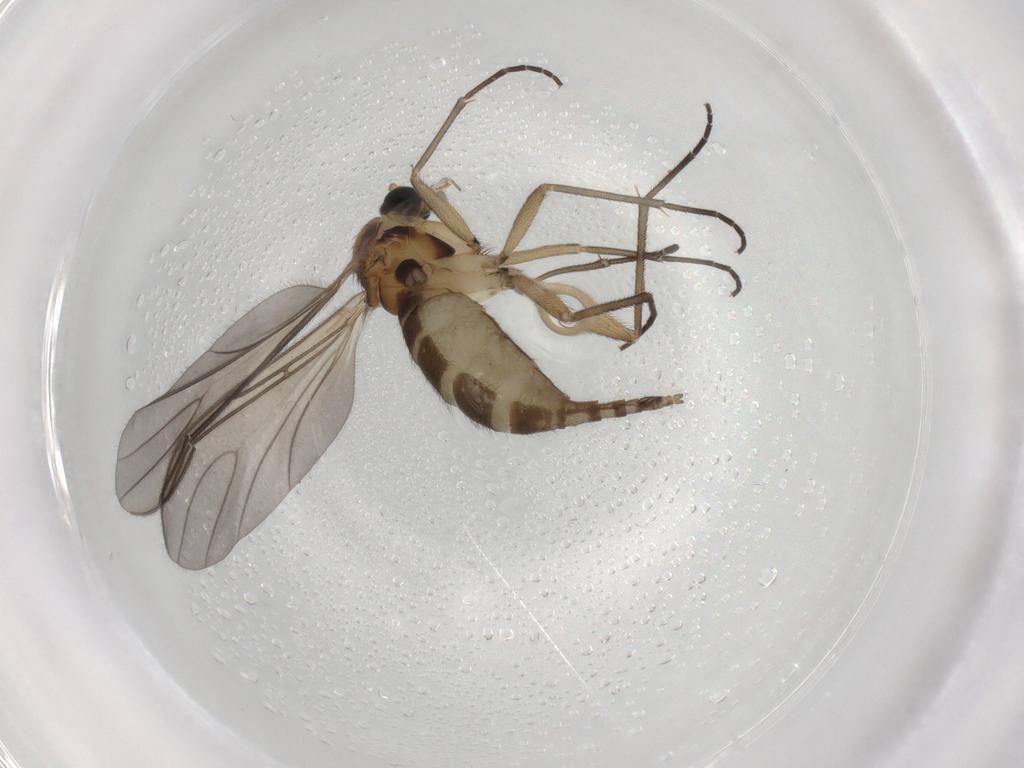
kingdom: Animalia
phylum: Arthropoda
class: Insecta
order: Diptera
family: Sciaridae
